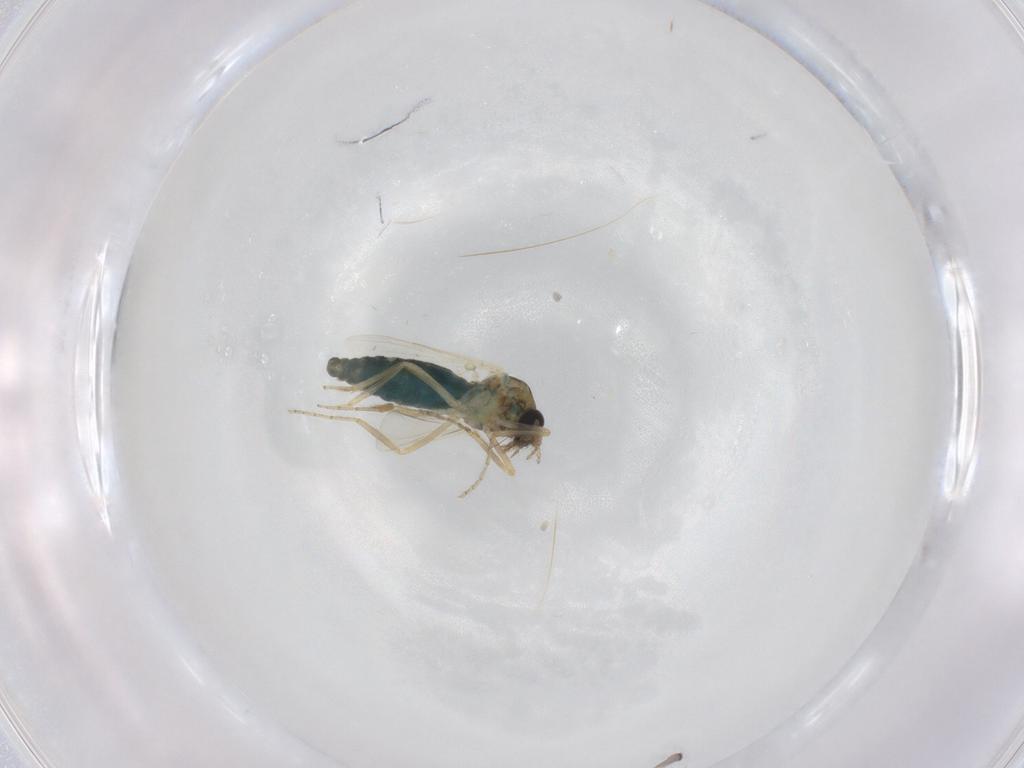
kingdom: Animalia
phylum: Arthropoda
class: Insecta
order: Diptera
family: Ceratopogonidae
